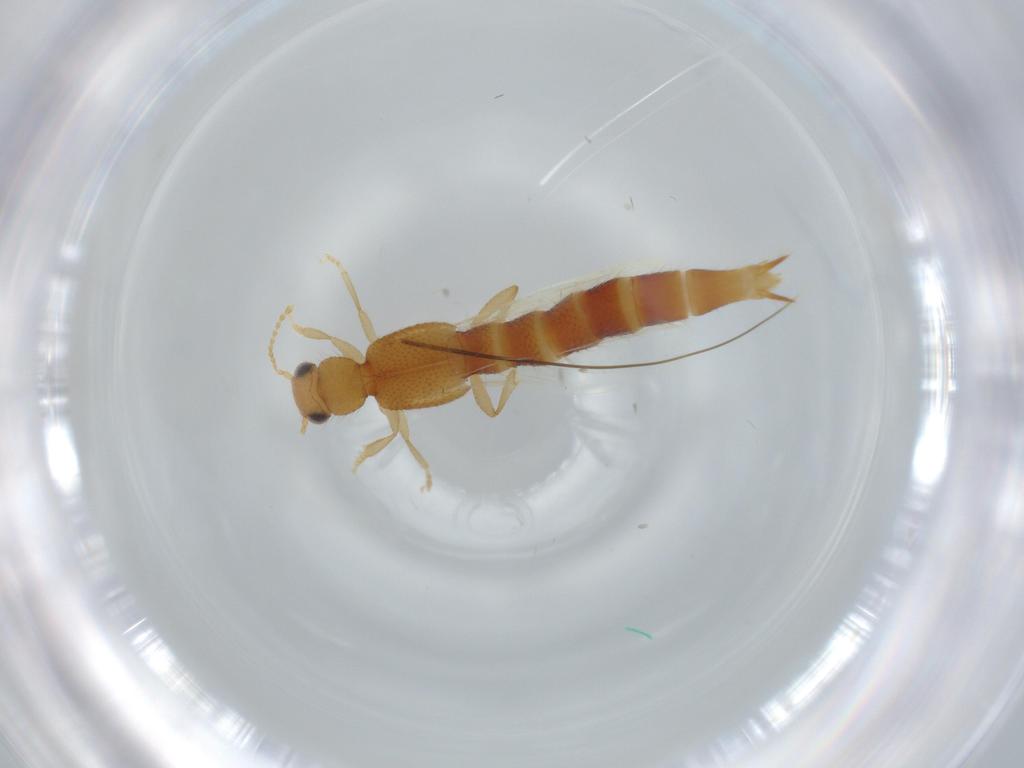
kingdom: Animalia
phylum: Arthropoda
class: Insecta
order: Coleoptera
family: Staphylinidae
